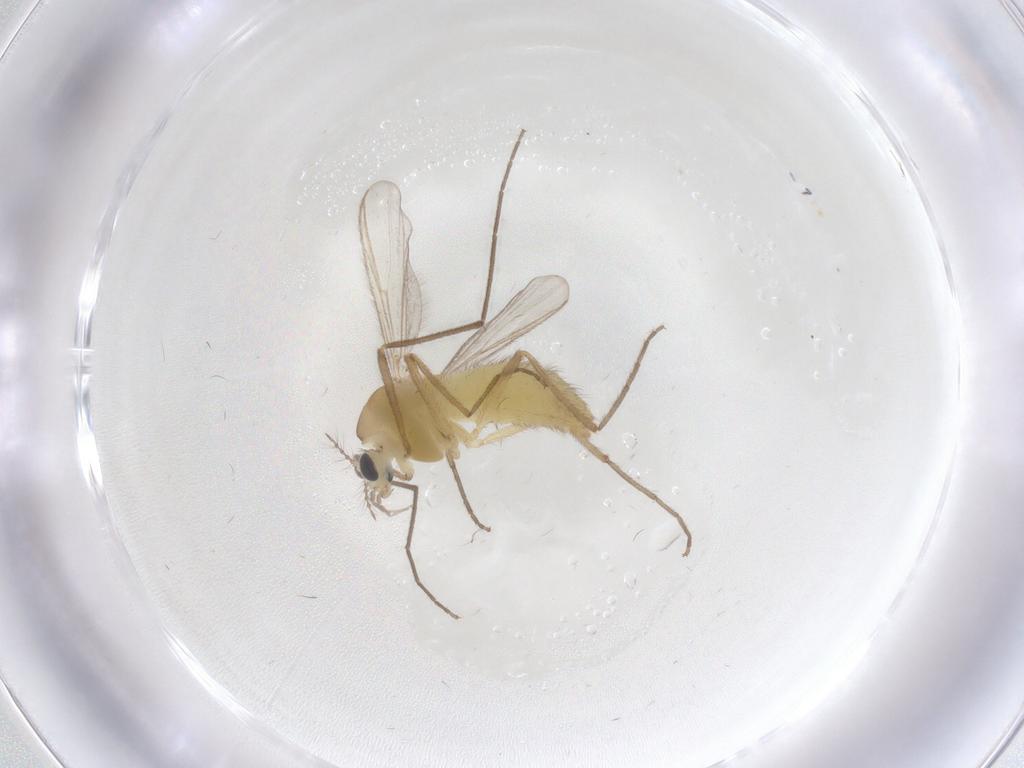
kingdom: Animalia
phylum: Arthropoda
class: Insecta
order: Diptera
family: Chironomidae
